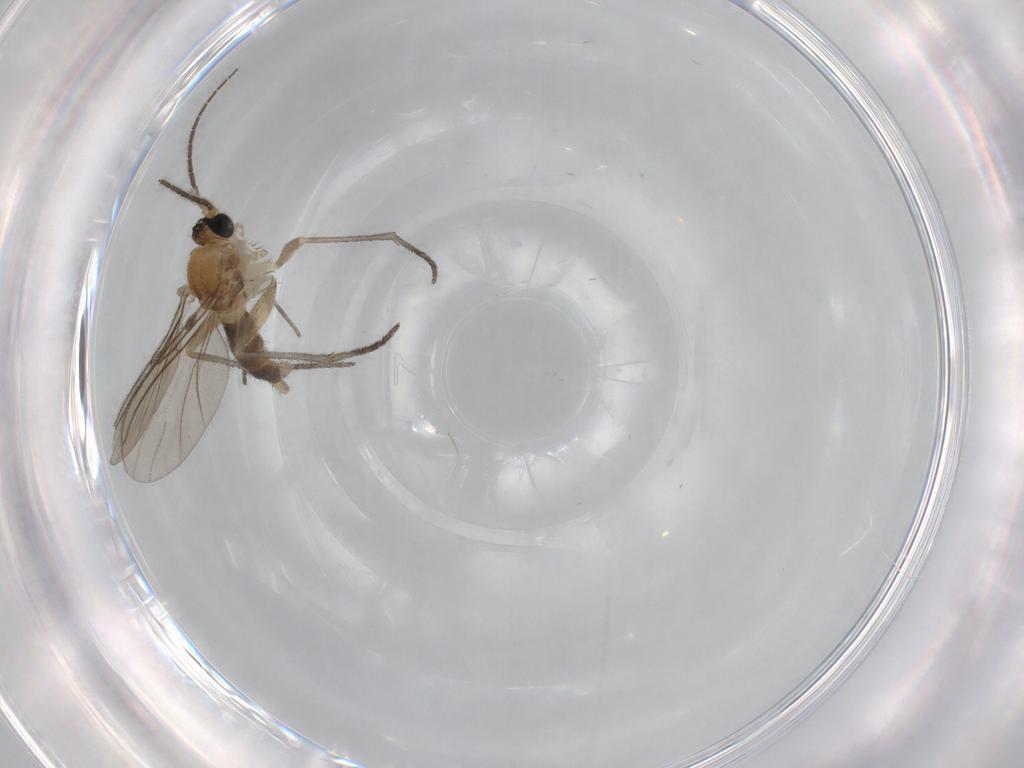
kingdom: Animalia
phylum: Arthropoda
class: Insecta
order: Diptera
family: Sciaridae
